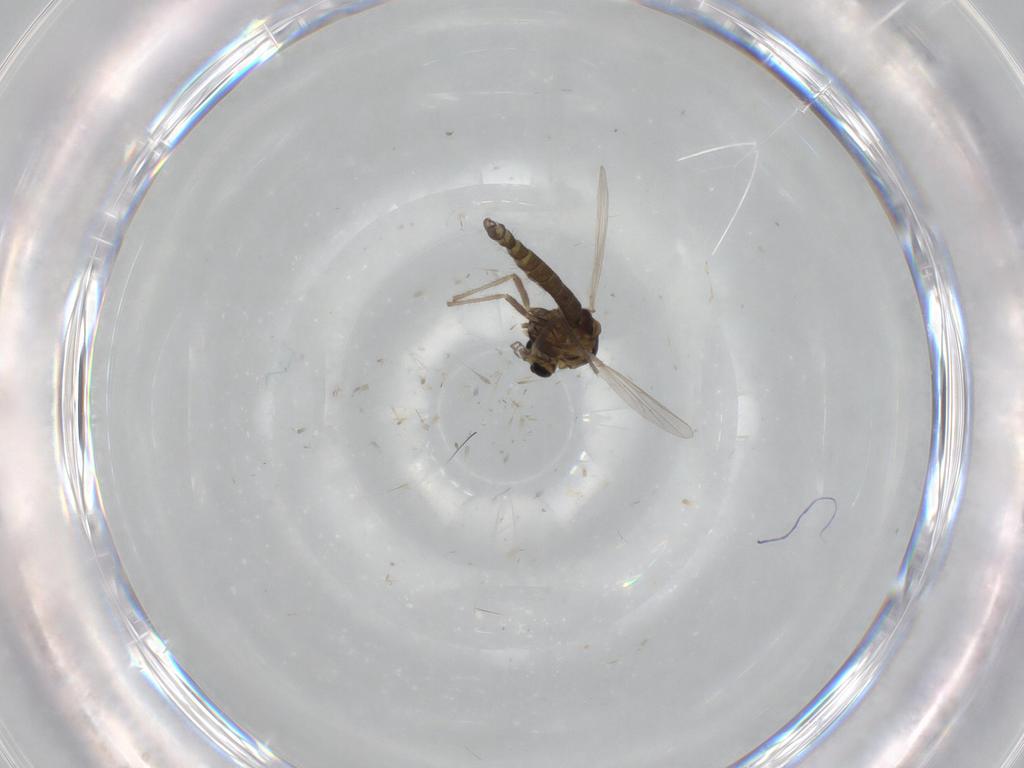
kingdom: Animalia
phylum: Arthropoda
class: Insecta
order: Diptera
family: Chironomidae
